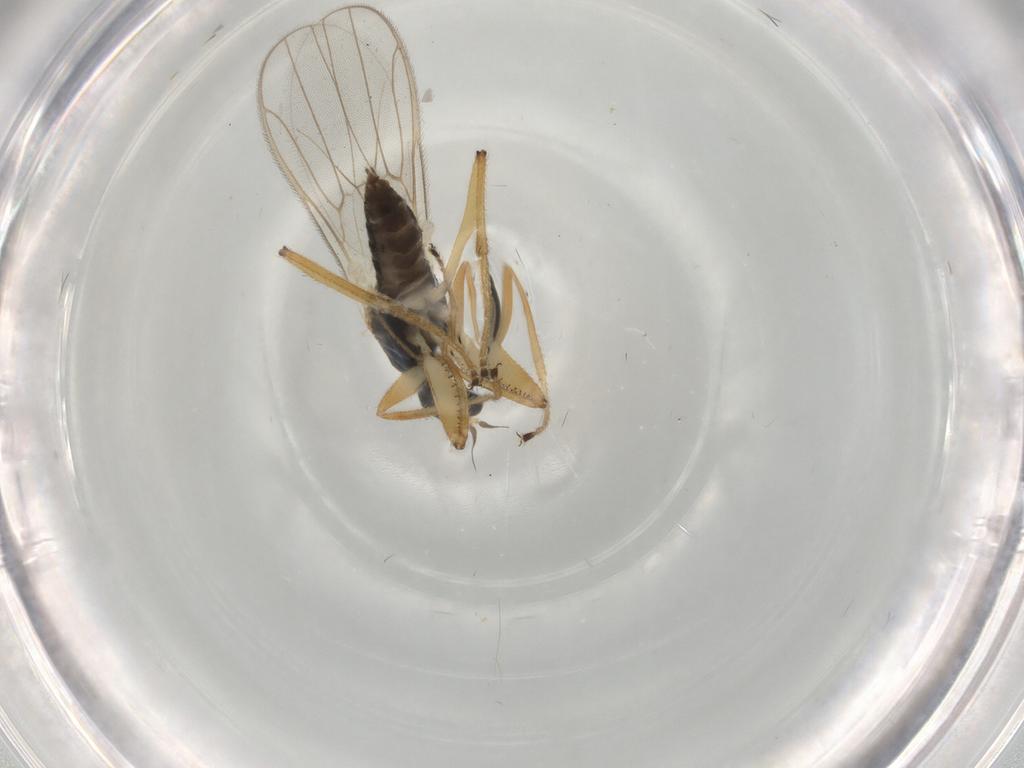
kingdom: Animalia
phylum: Arthropoda
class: Insecta
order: Diptera
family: Hybotidae
